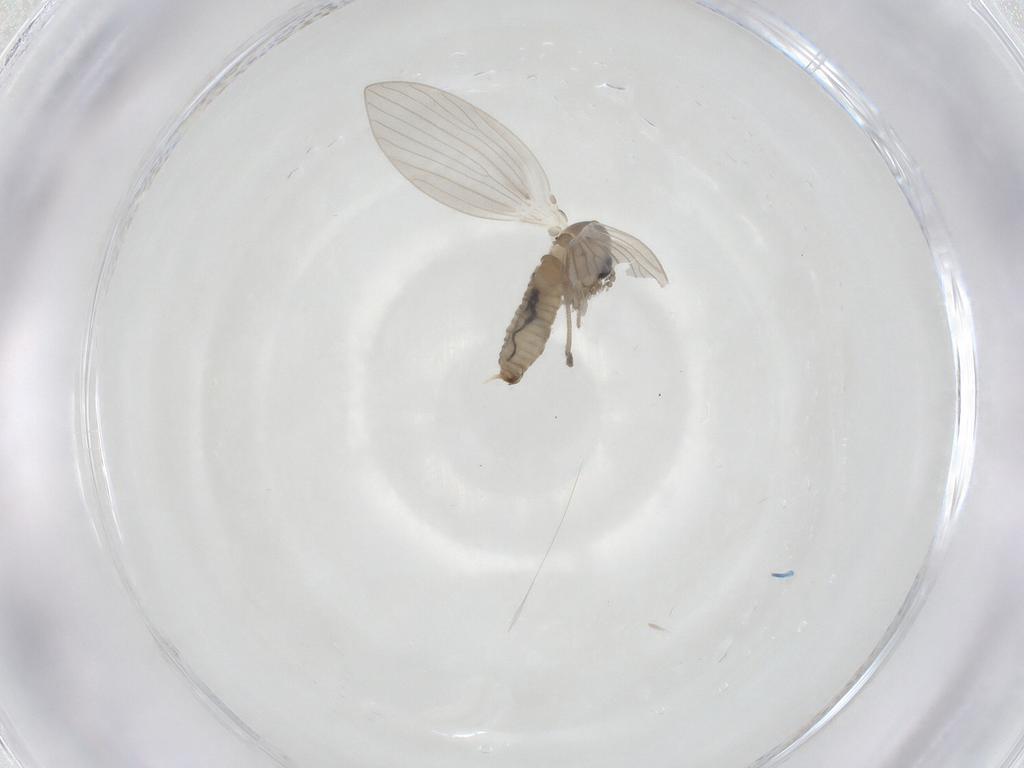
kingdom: Animalia
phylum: Arthropoda
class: Insecta
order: Diptera
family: Psychodidae
